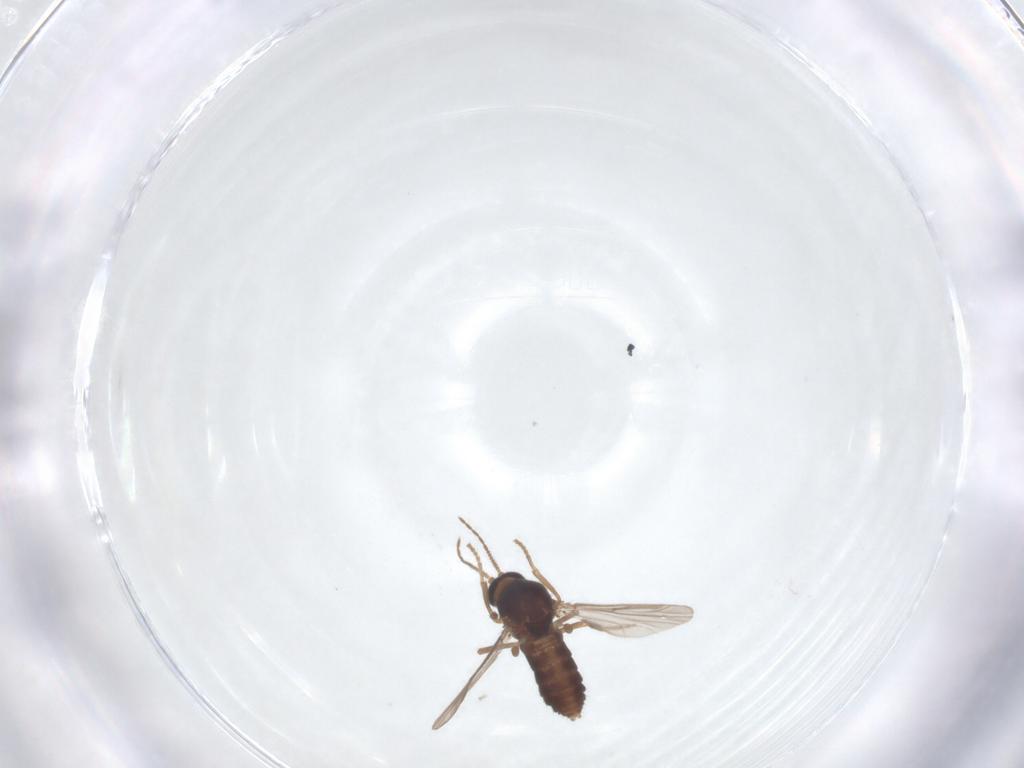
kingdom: Animalia
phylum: Arthropoda
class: Insecta
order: Diptera
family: Ceratopogonidae
